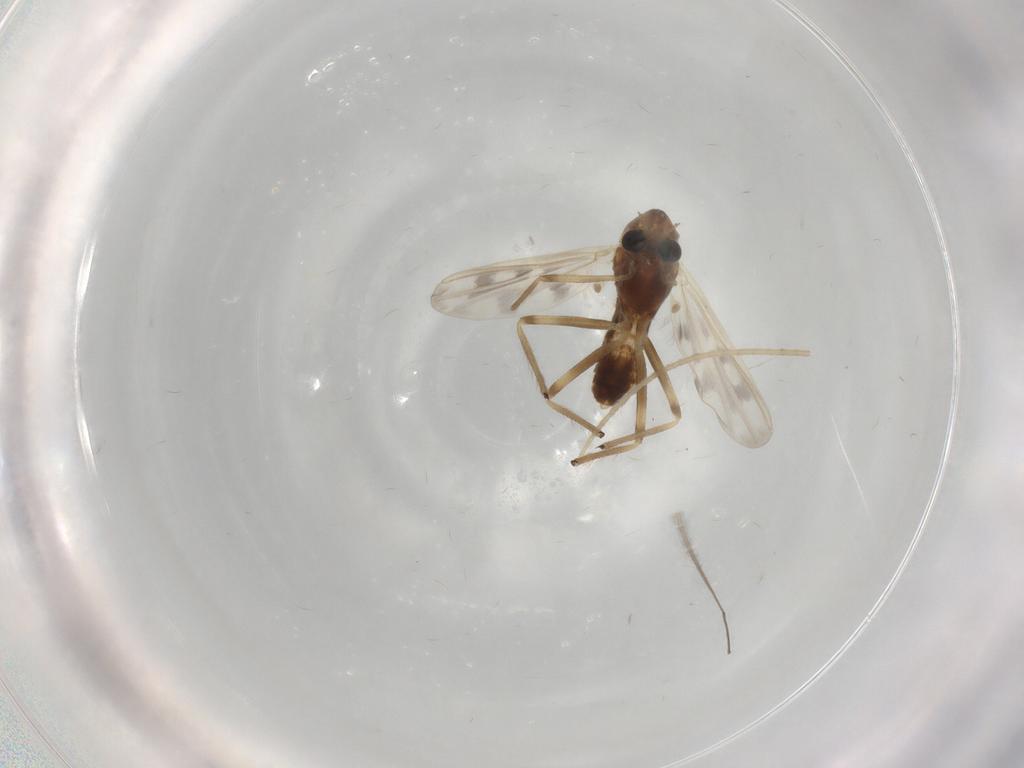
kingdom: Animalia
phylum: Arthropoda
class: Insecta
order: Diptera
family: Chironomidae
